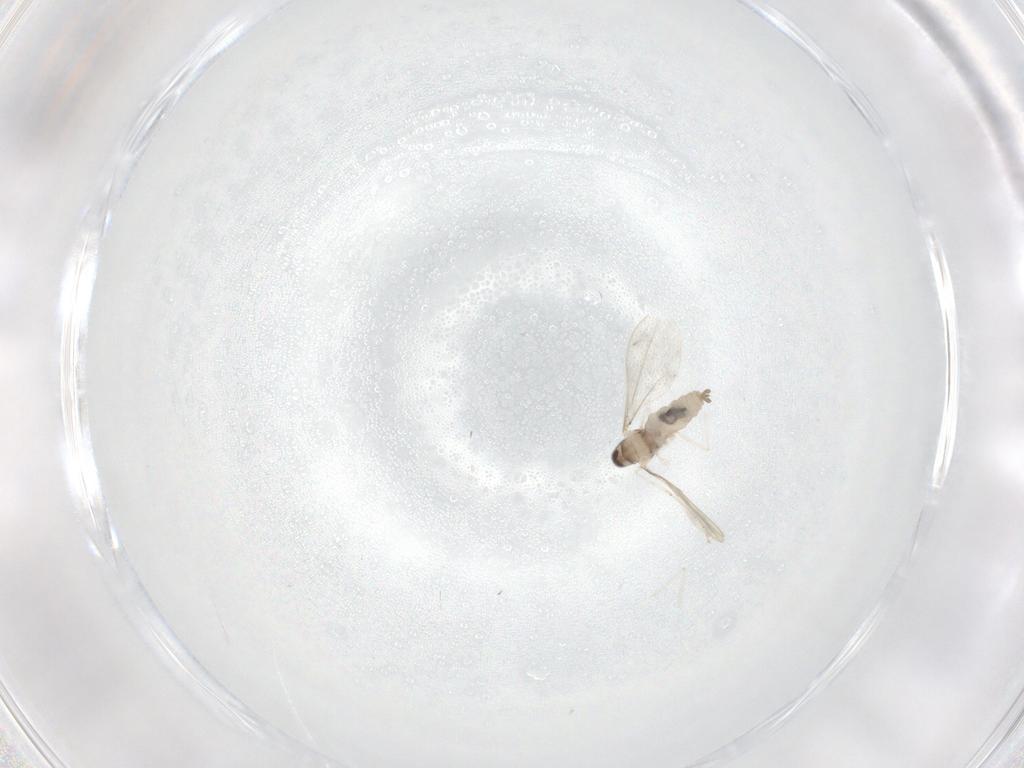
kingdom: Animalia
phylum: Arthropoda
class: Insecta
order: Diptera
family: Cecidomyiidae
